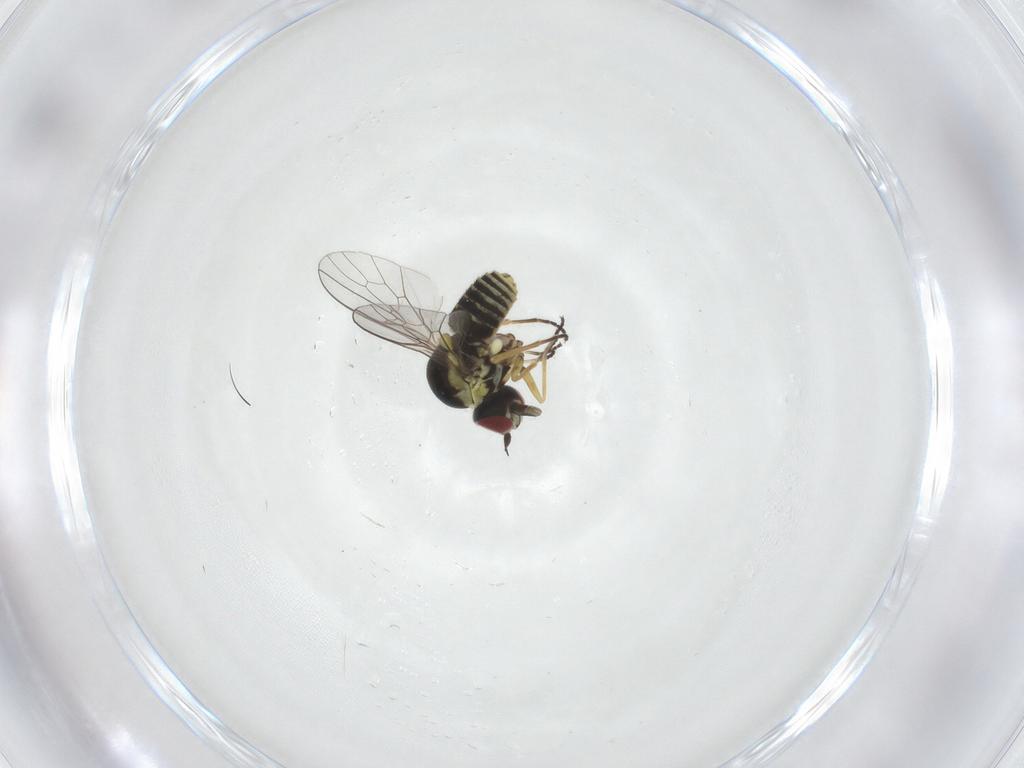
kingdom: Animalia
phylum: Arthropoda
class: Insecta
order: Diptera
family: Mythicomyiidae
